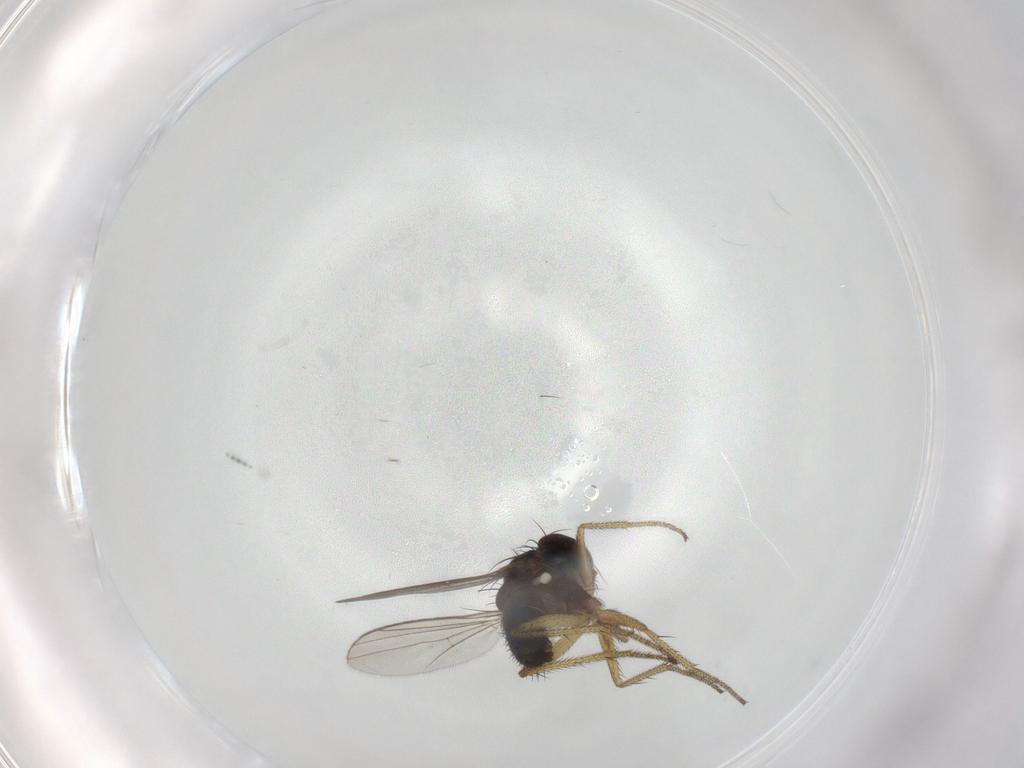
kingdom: Animalia
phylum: Arthropoda
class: Insecta
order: Diptera
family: Dolichopodidae
